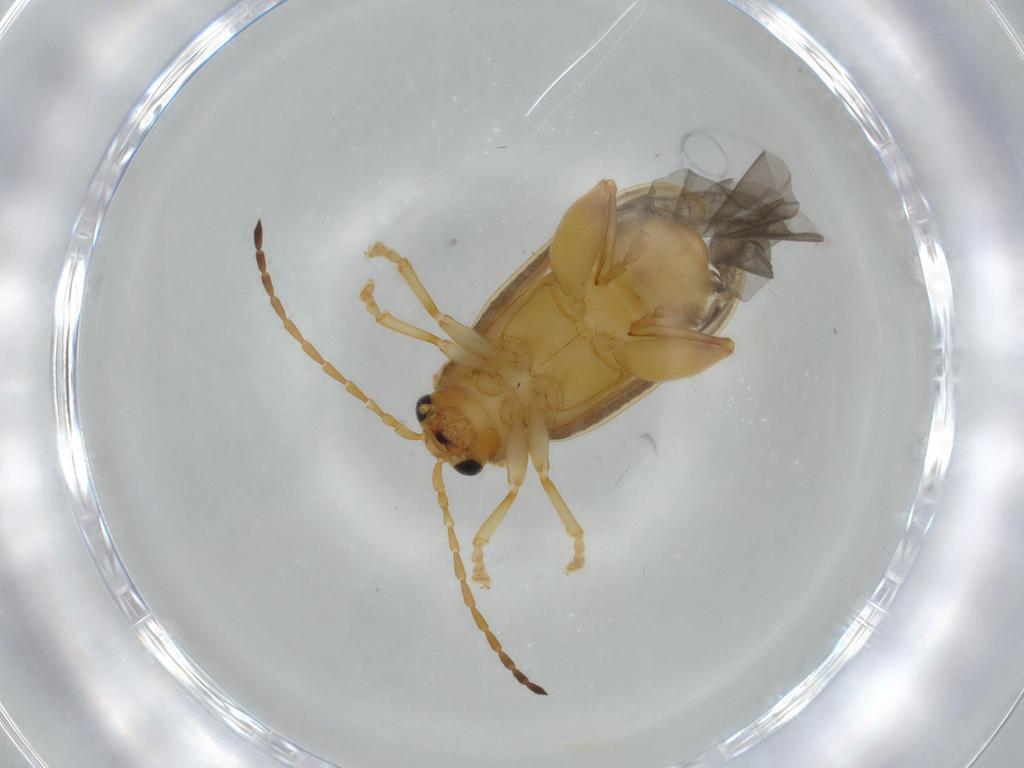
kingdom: Animalia
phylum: Arthropoda
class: Insecta
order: Coleoptera
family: Chrysomelidae
